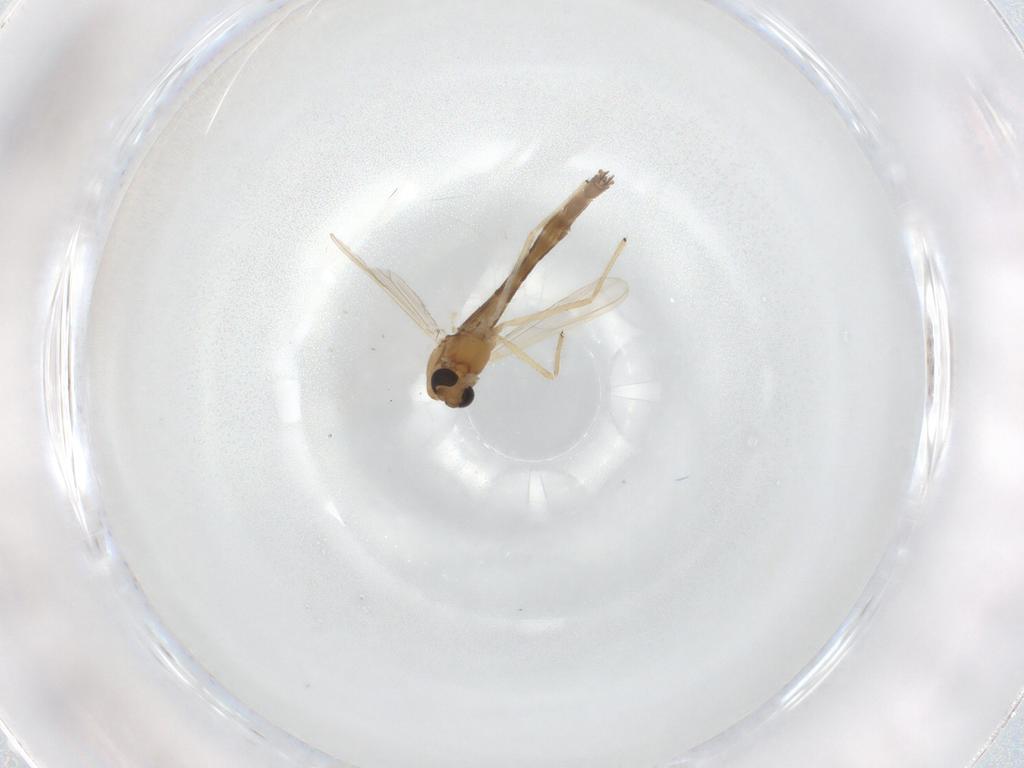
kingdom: Animalia
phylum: Arthropoda
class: Insecta
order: Diptera
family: Chironomidae
